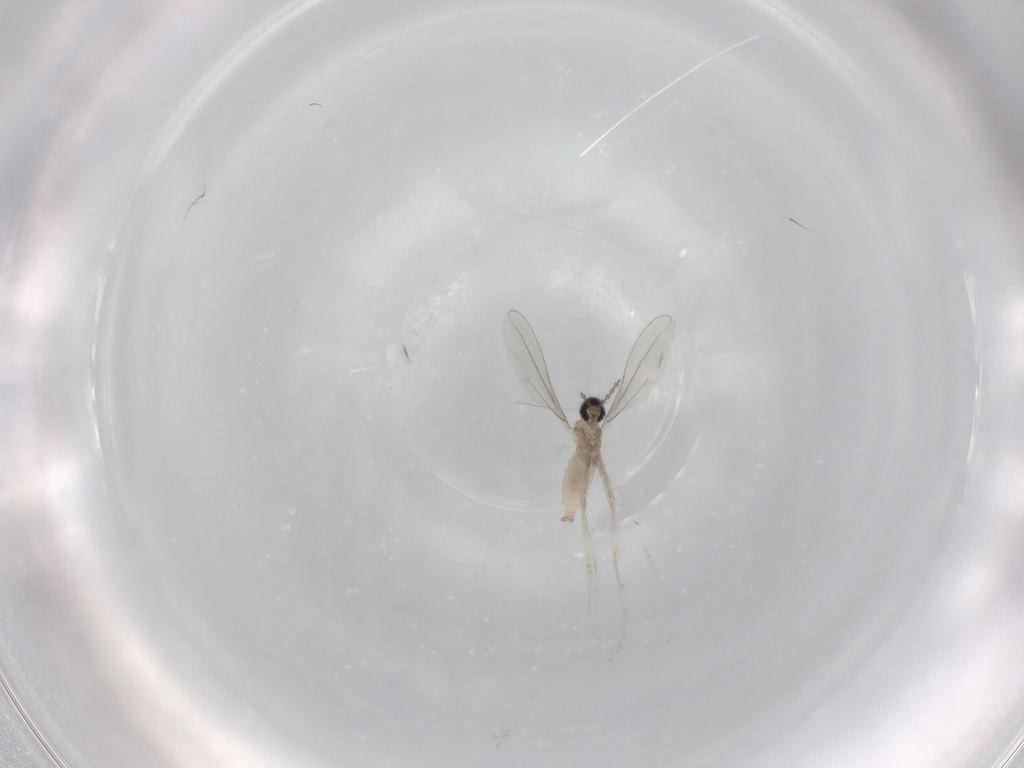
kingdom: Animalia
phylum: Arthropoda
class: Insecta
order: Diptera
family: Cecidomyiidae
